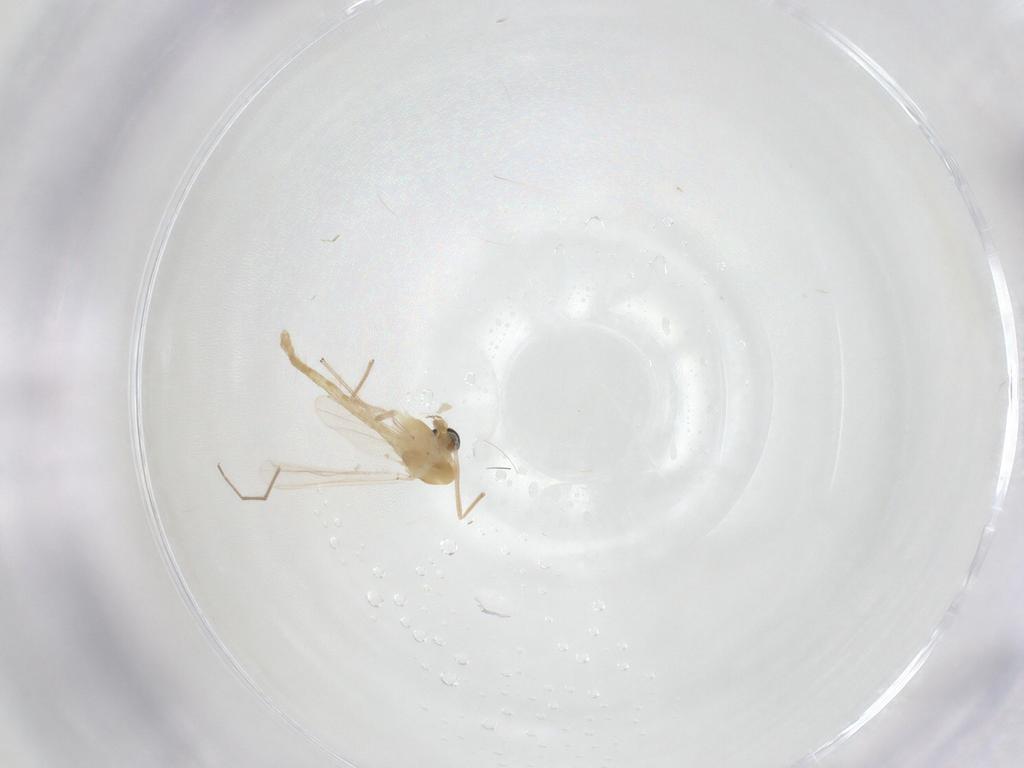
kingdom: Animalia
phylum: Arthropoda
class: Insecta
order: Diptera
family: Chironomidae
